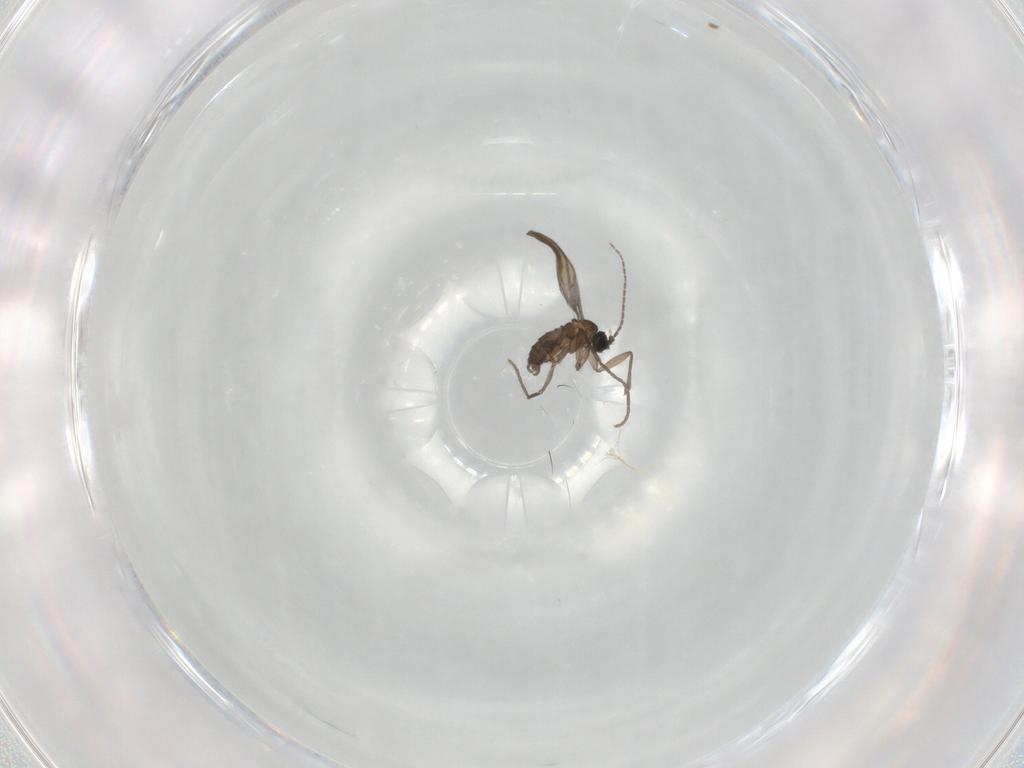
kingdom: Animalia
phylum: Arthropoda
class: Insecta
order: Diptera
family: Sciaridae
